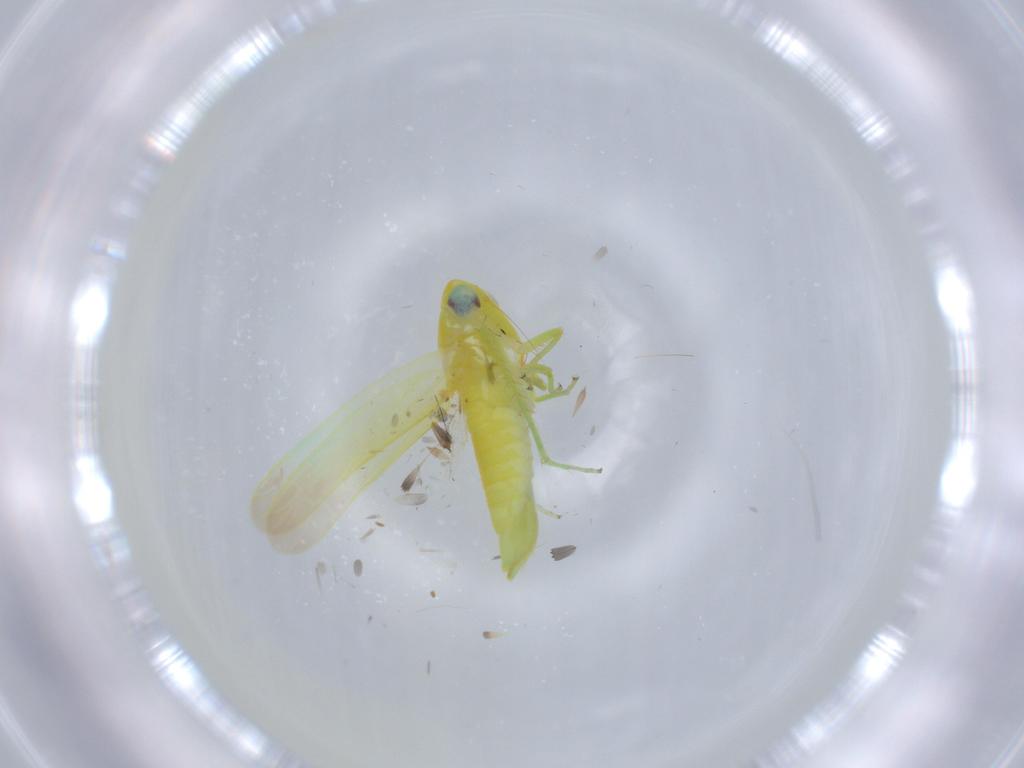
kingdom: Animalia
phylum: Arthropoda
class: Insecta
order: Hemiptera
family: Cicadellidae
